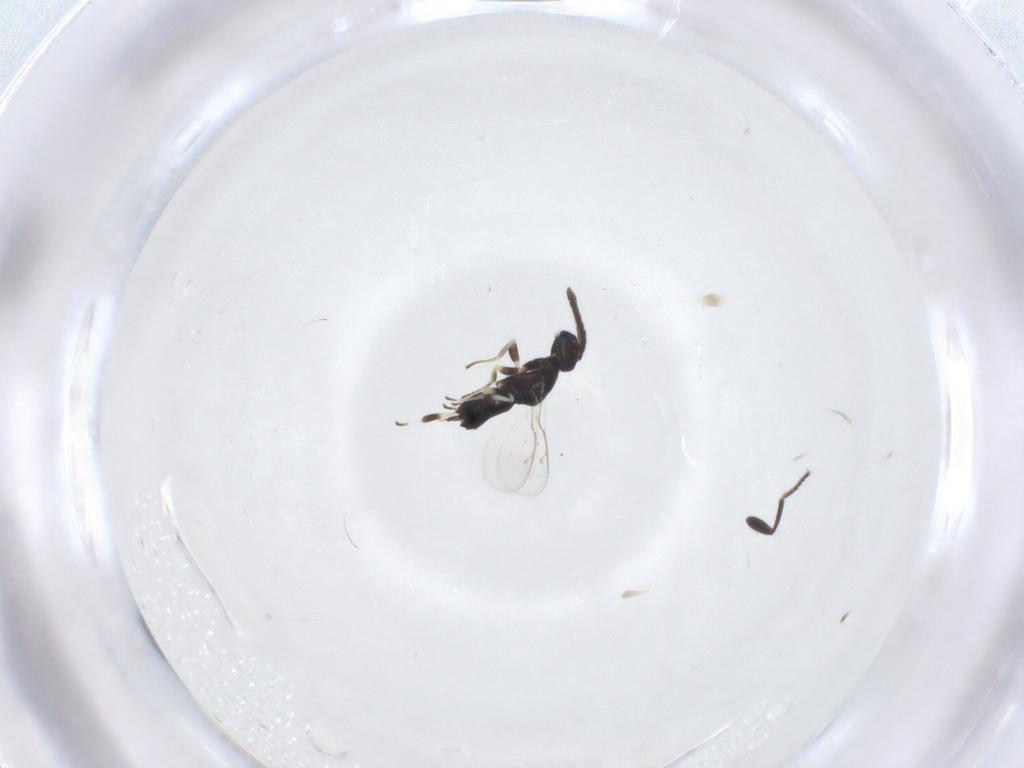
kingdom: Animalia
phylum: Arthropoda
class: Insecta
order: Hymenoptera
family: Eupelmidae
